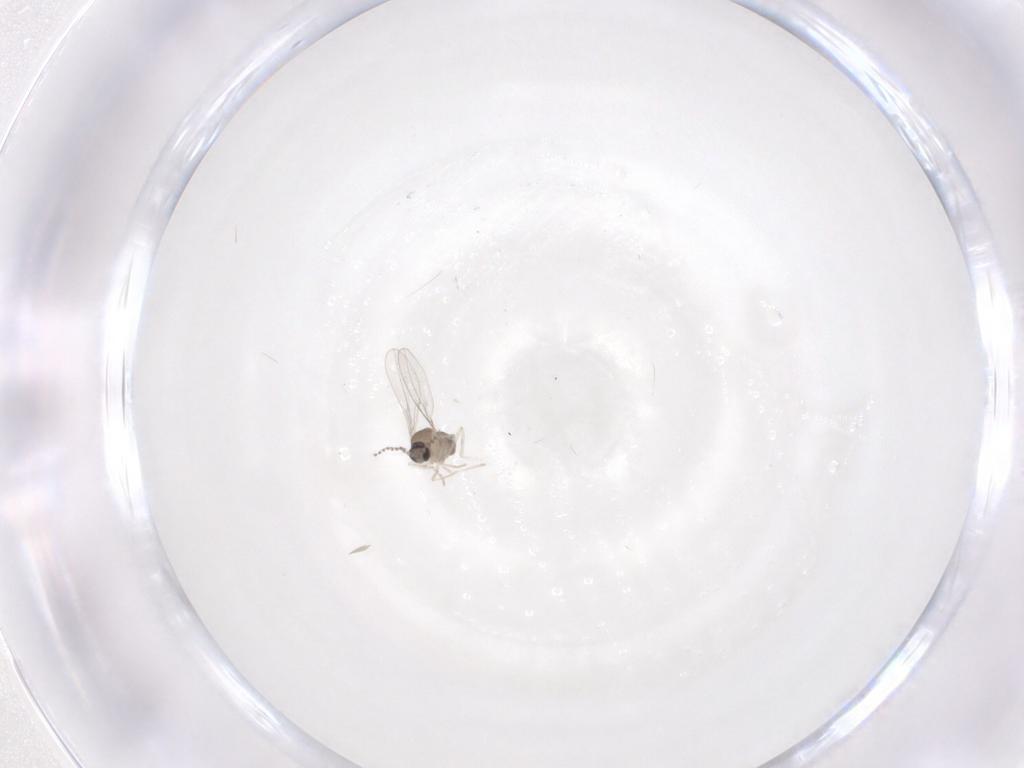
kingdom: Animalia
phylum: Arthropoda
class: Insecta
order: Diptera
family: Cecidomyiidae
